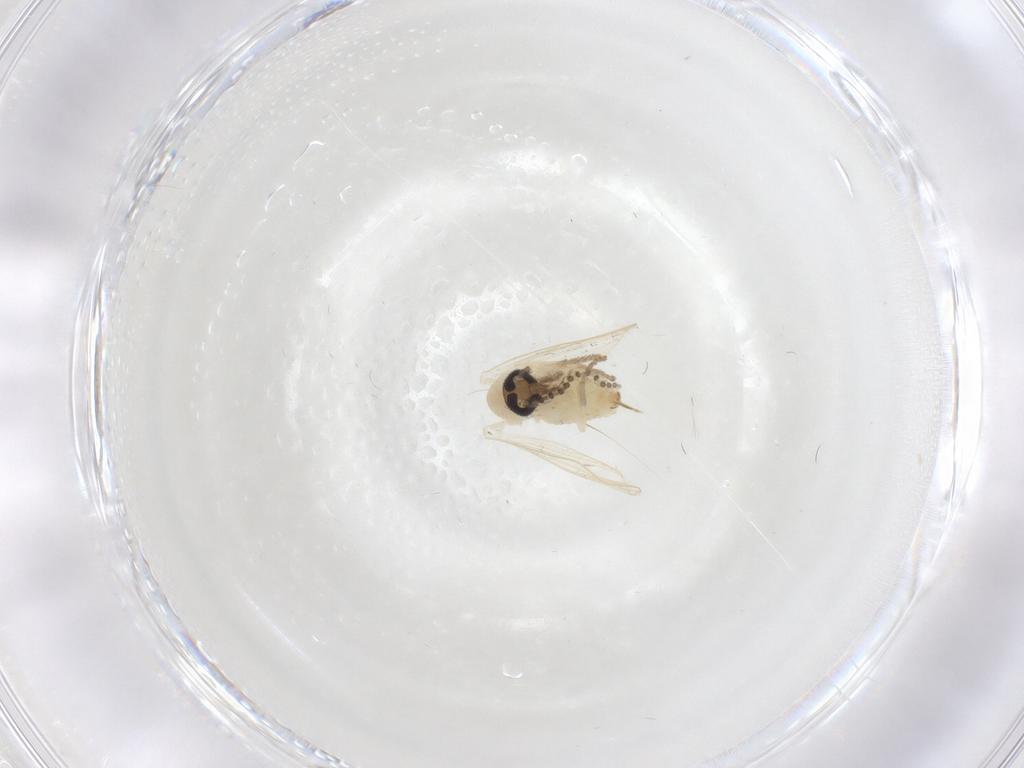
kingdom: Animalia
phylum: Arthropoda
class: Insecta
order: Diptera
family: Psychodidae
